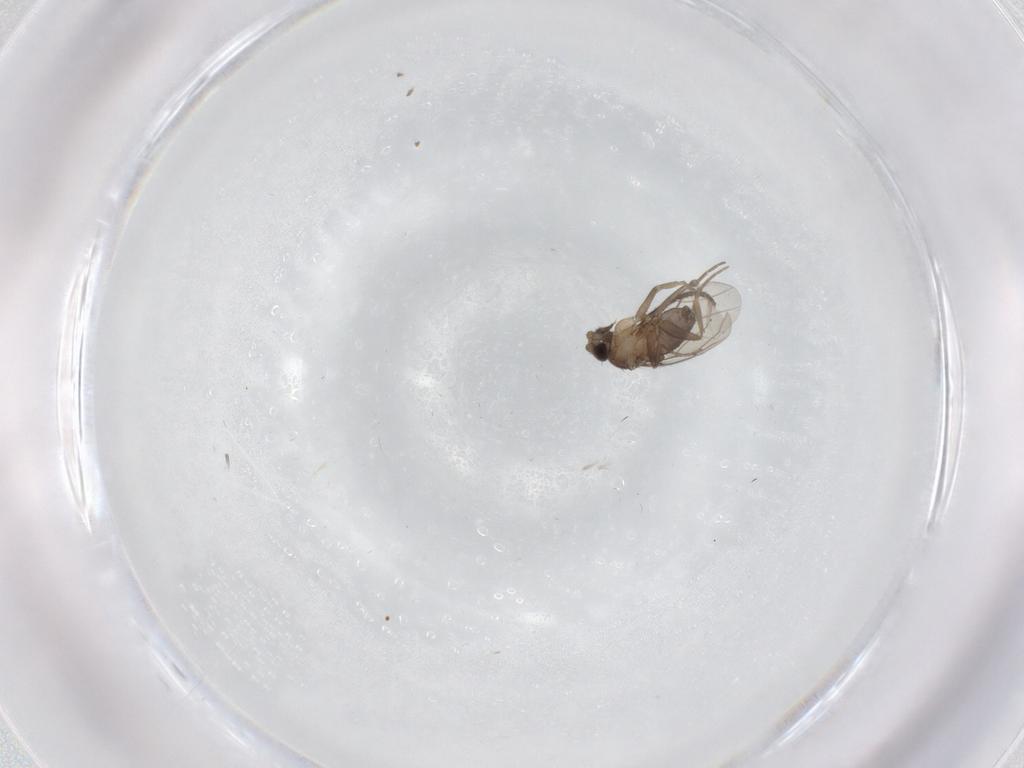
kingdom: Animalia
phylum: Arthropoda
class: Insecta
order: Diptera
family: Phoridae
